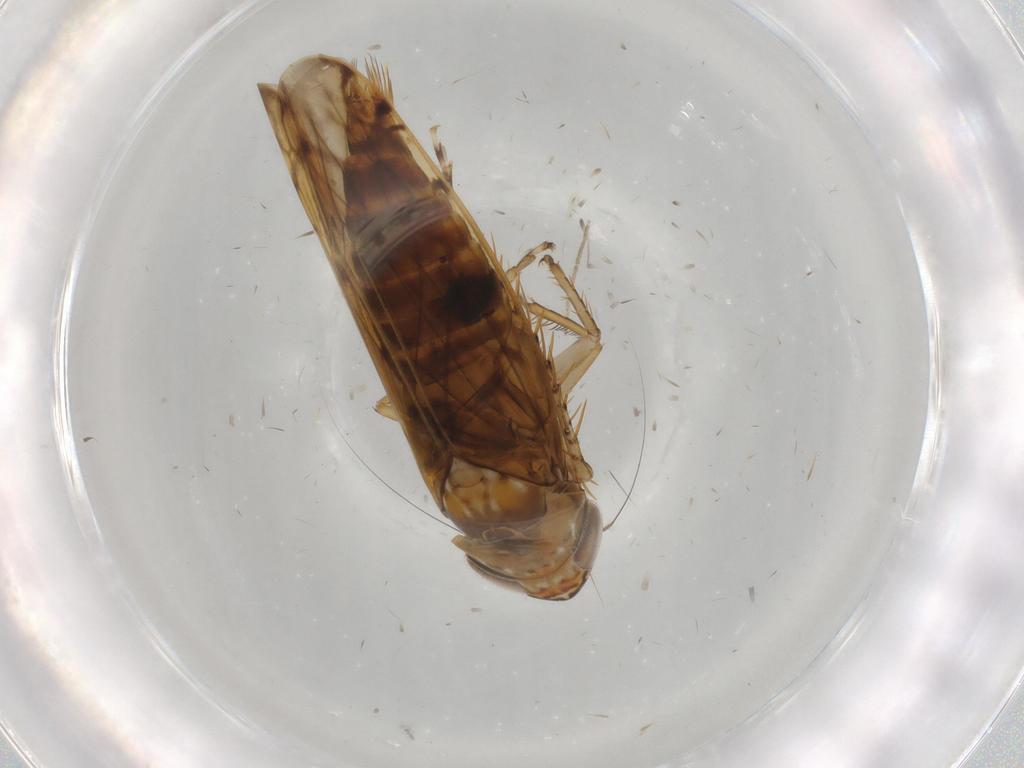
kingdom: Animalia
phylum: Arthropoda
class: Insecta
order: Hemiptera
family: Cicadellidae
